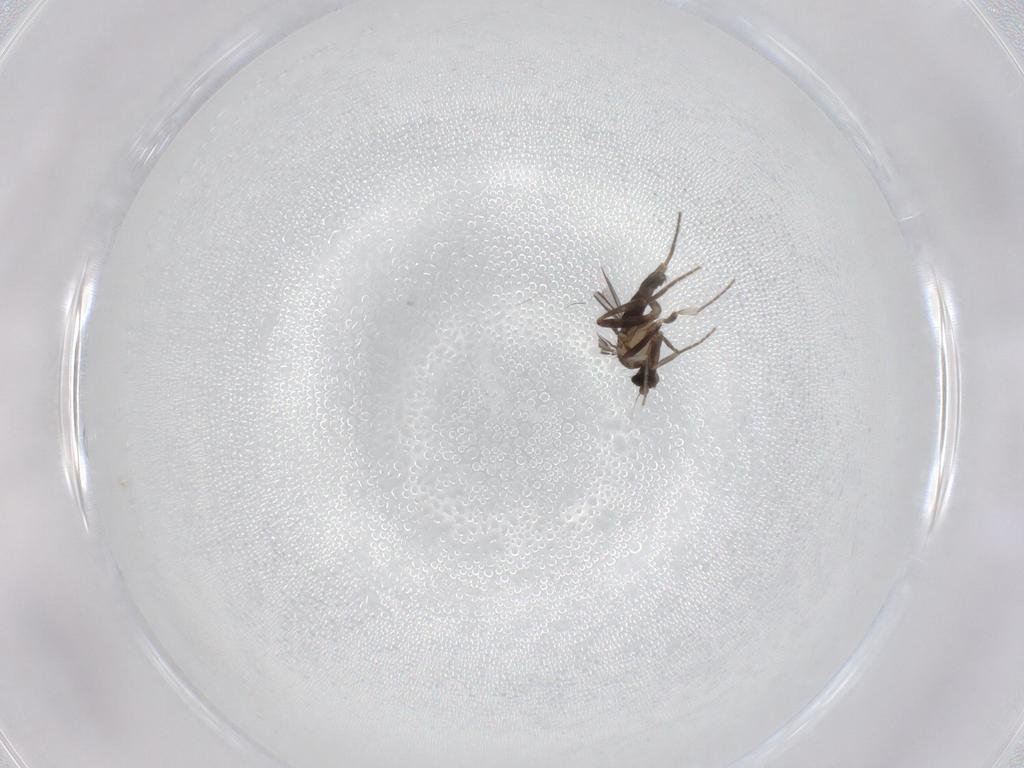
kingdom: Animalia
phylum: Arthropoda
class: Insecta
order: Diptera
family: Phoridae
